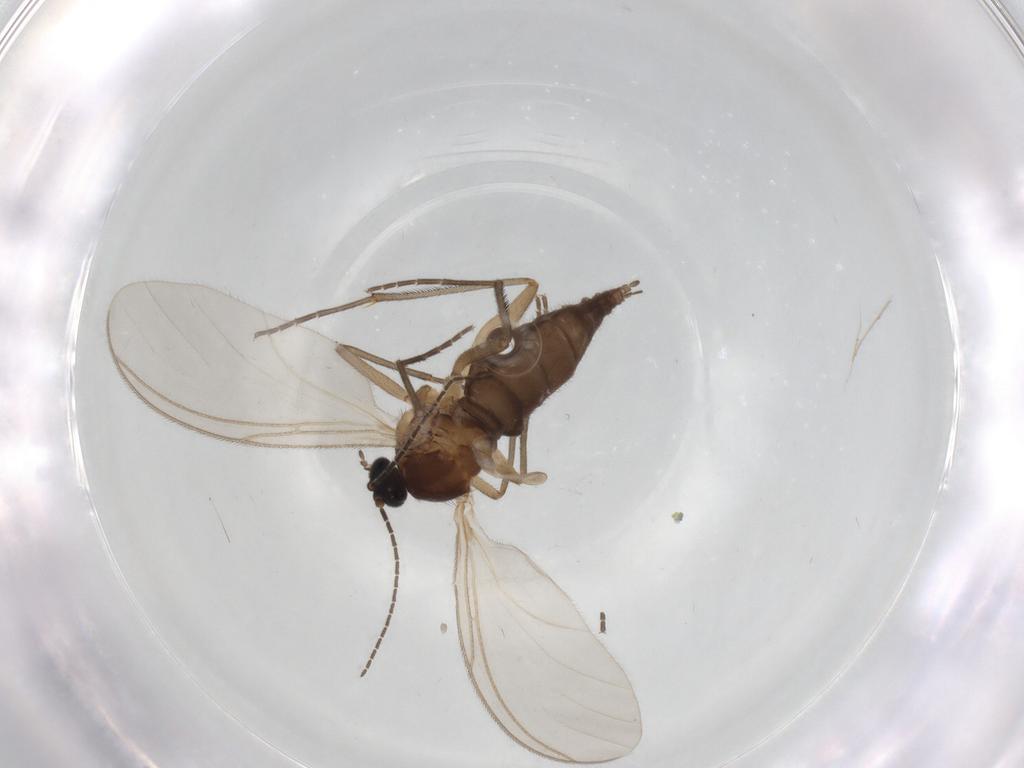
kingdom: Animalia
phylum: Arthropoda
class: Insecta
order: Diptera
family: Sciaridae
